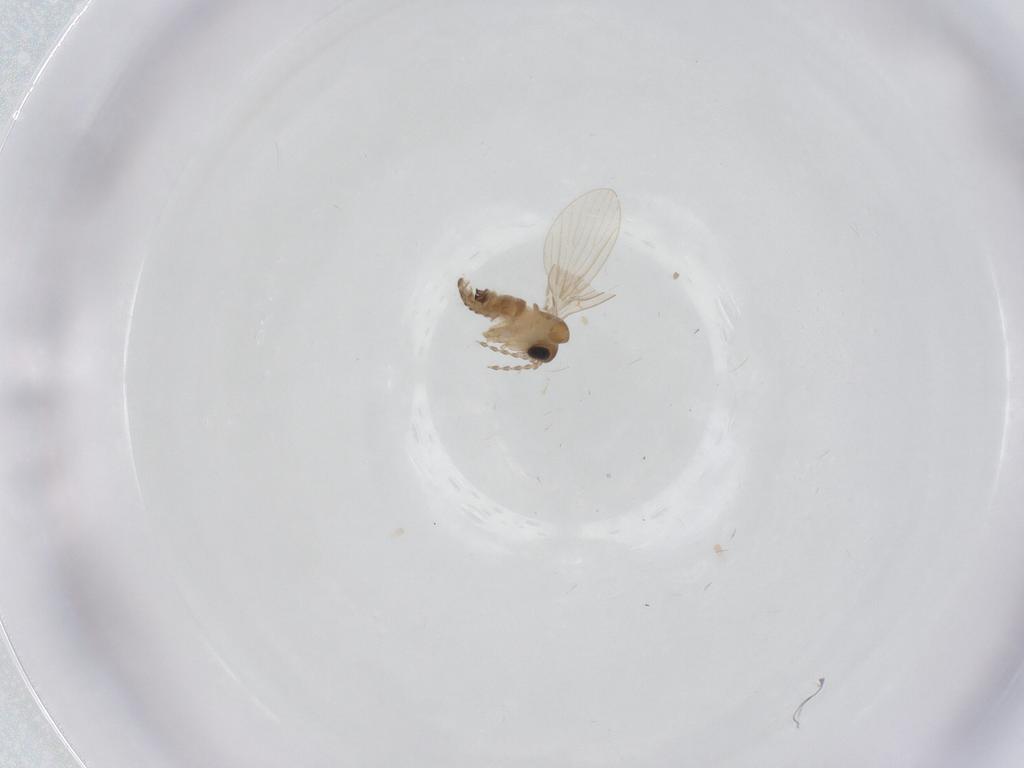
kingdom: Animalia
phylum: Arthropoda
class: Insecta
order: Diptera
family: Psychodidae
